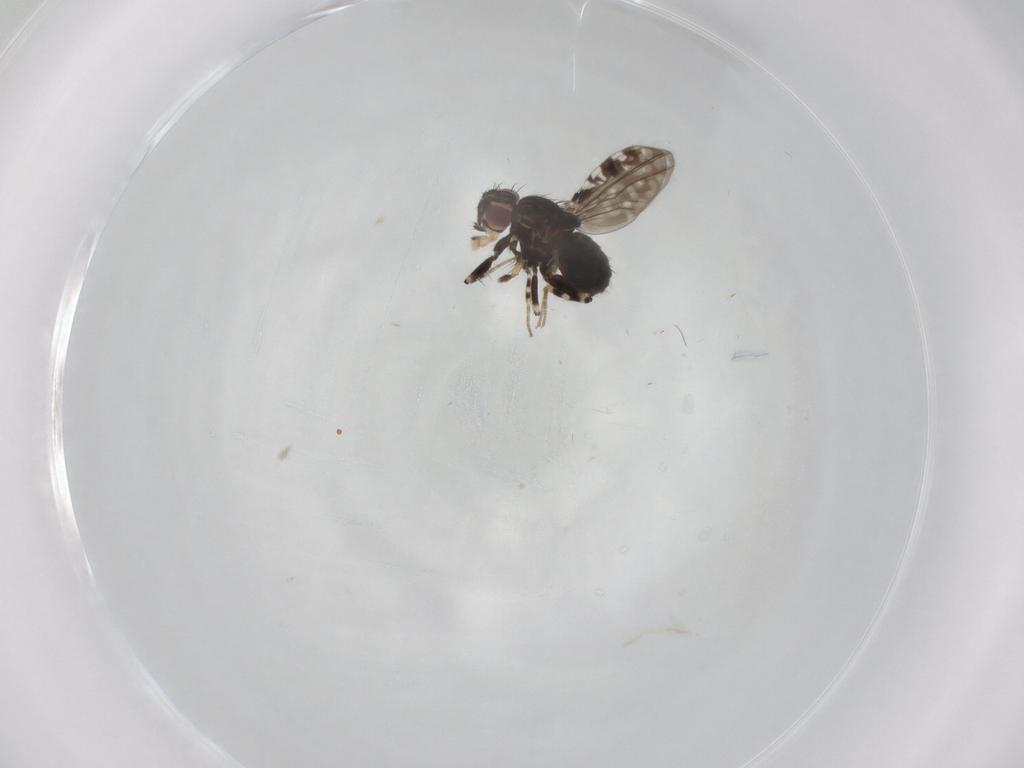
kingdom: Animalia
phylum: Arthropoda
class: Insecta
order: Diptera
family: Drosophilidae
